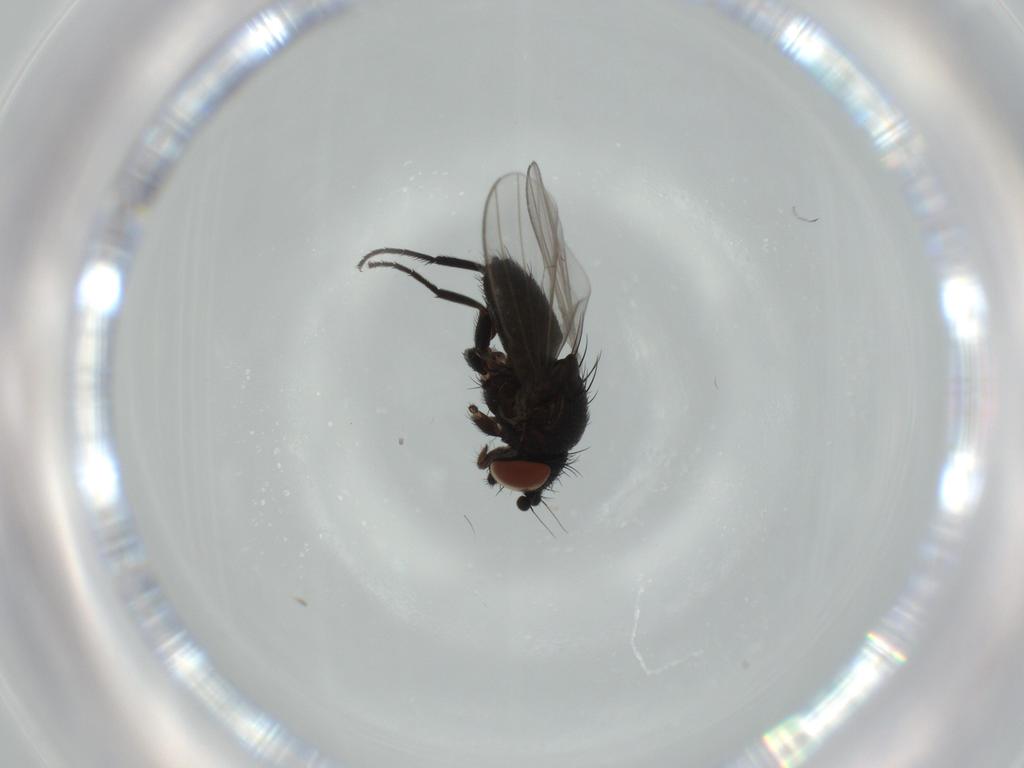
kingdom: Animalia
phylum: Arthropoda
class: Insecta
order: Diptera
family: Milichiidae
